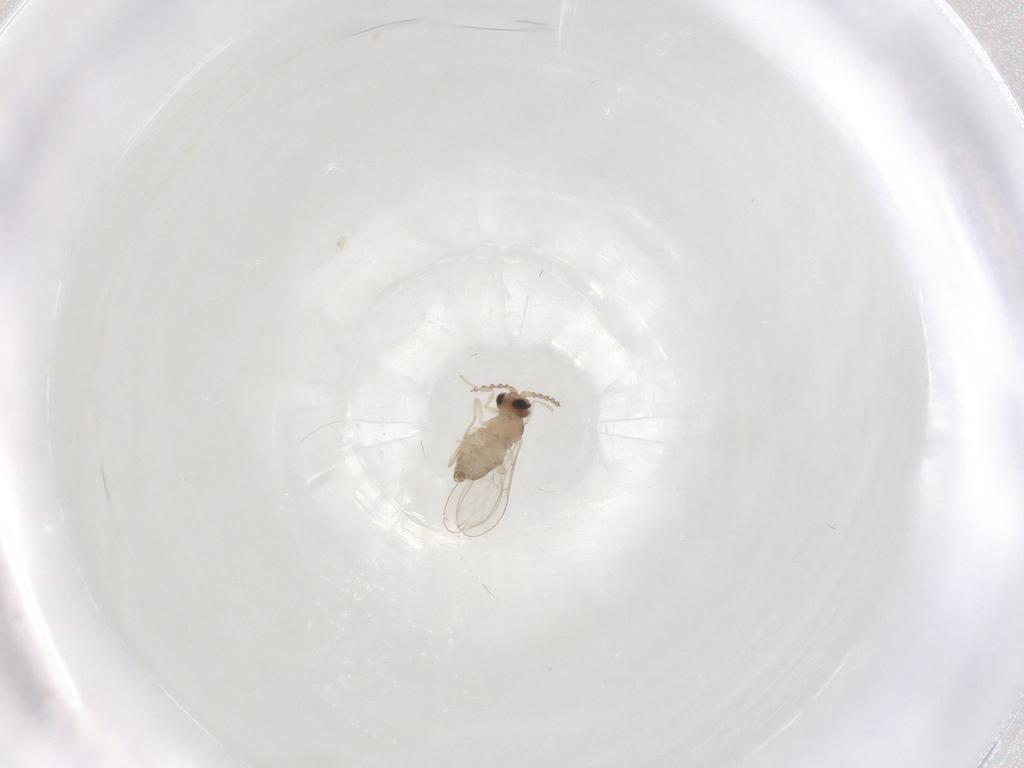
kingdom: Animalia
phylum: Arthropoda
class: Insecta
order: Diptera
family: Cecidomyiidae
